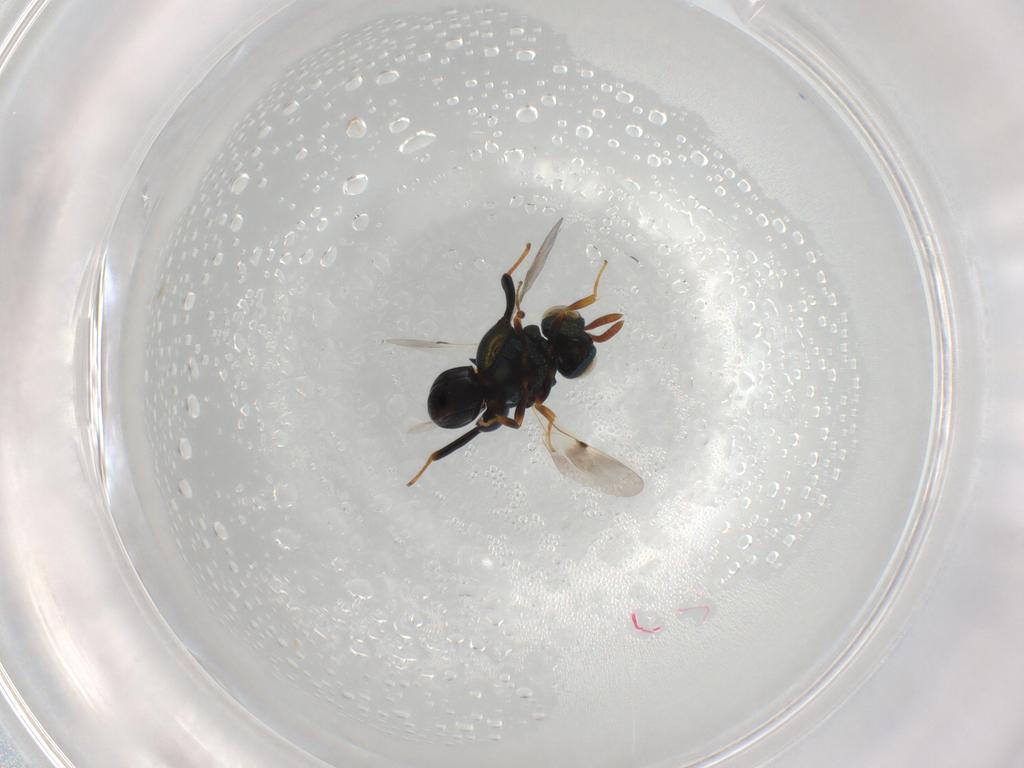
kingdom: Animalia
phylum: Arthropoda
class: Insecta
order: Hymenoptera
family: Chalcididae
